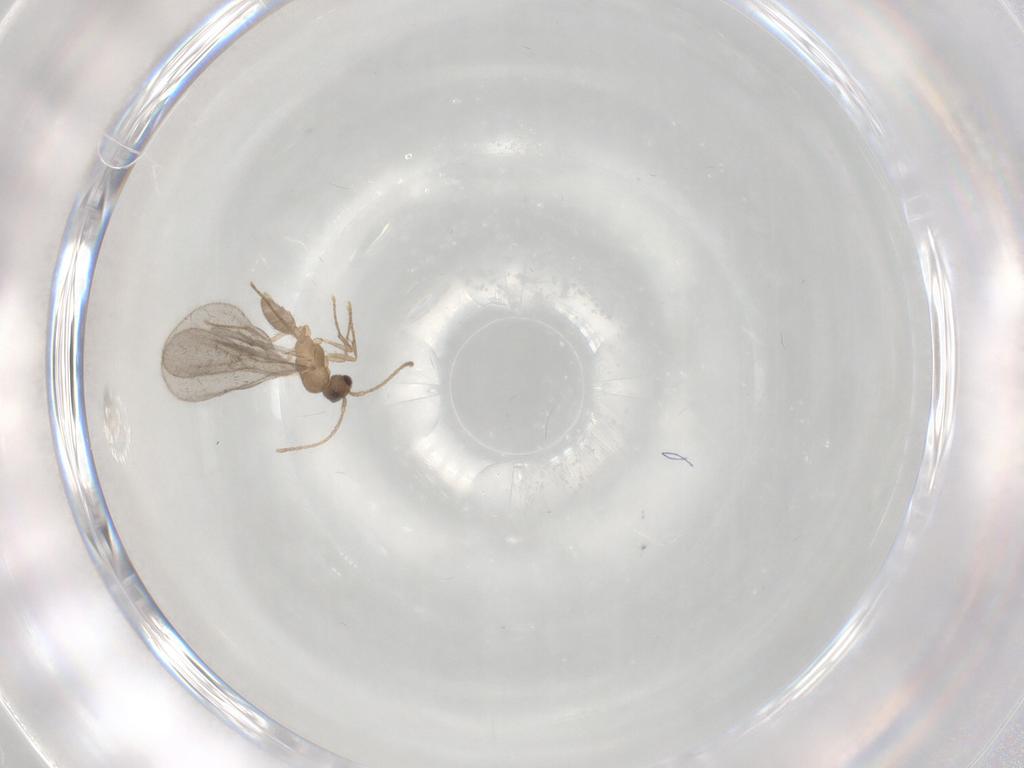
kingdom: Animalia
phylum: Arthropoda
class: Insecta
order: Hymenoptera
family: Formicidae
